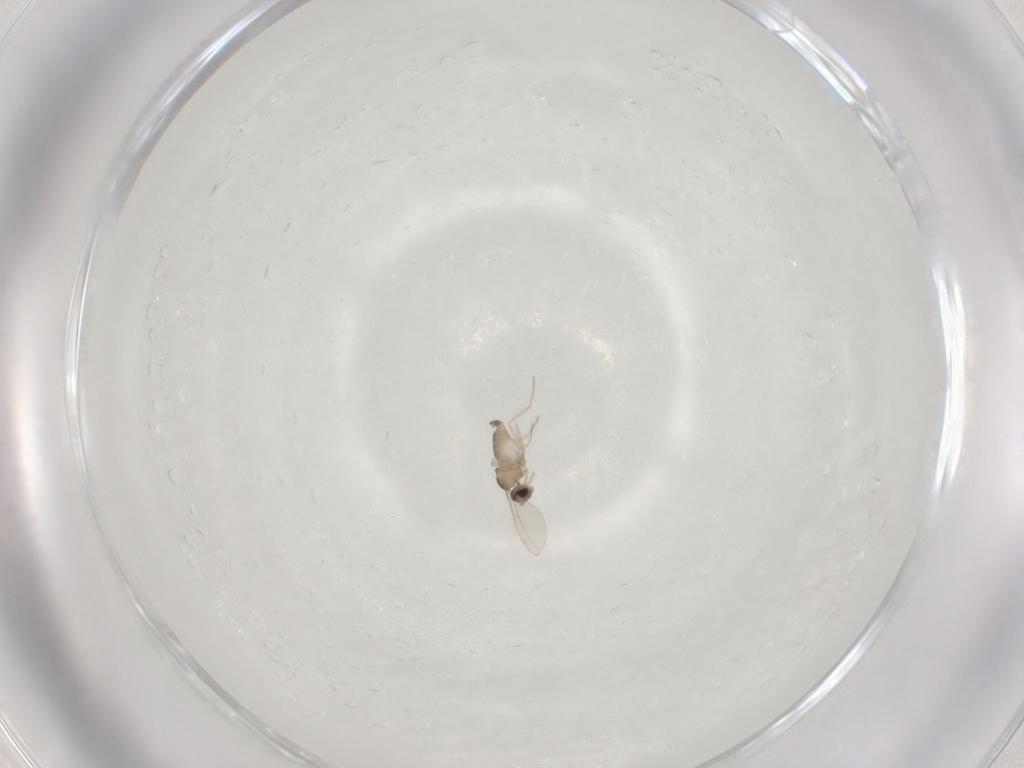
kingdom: Animalia
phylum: Arthropoda
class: Insecta
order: Diptera
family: Cecidomyiidae
